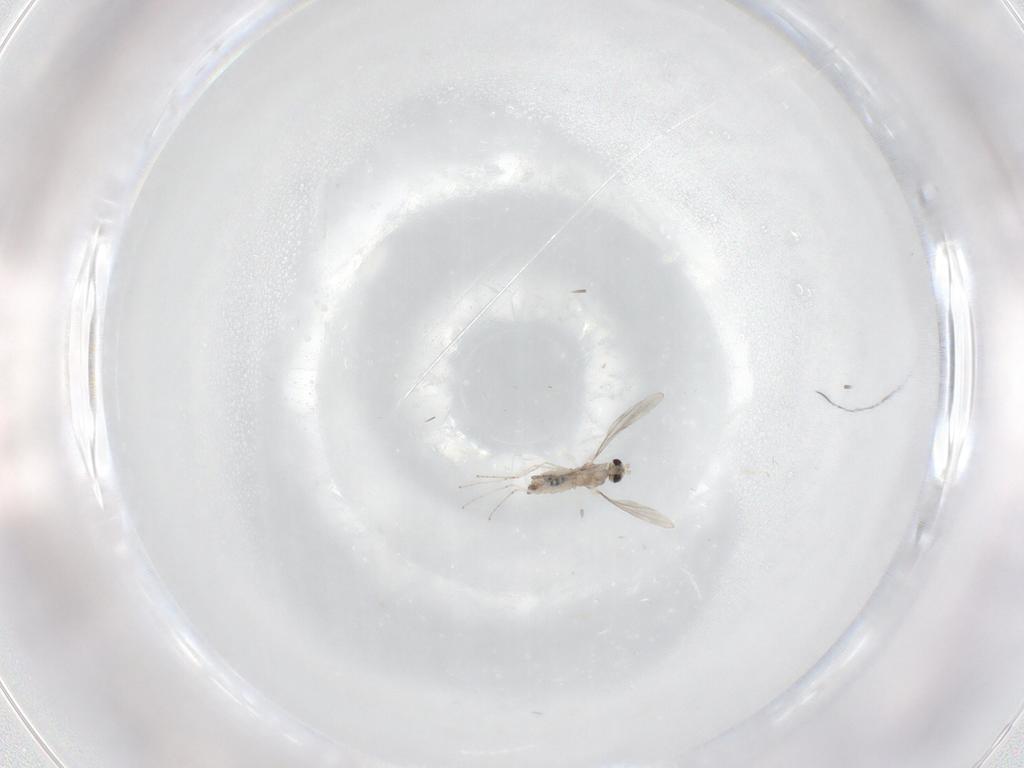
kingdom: Animalia
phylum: Arthropoda
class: Insecta
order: Diptera
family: Cecidomyiidae
